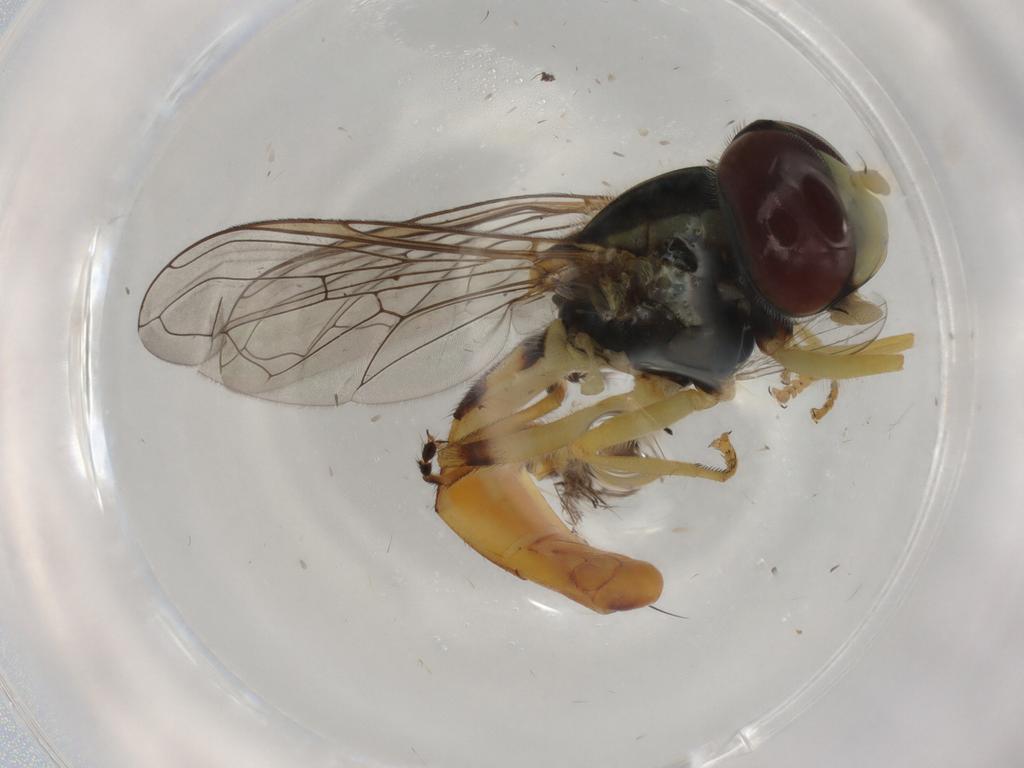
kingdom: Animalia
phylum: Arthropoda
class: Insecta
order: Diptera
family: Syrphidae
